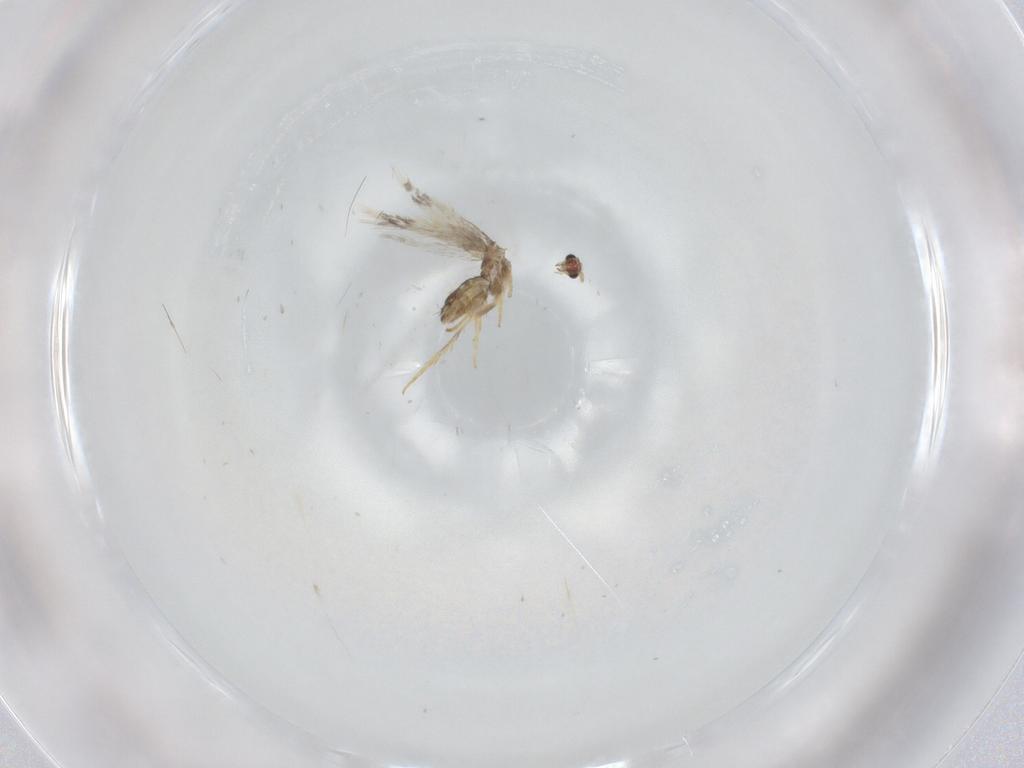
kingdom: Animalia
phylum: Arthropoda
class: Insecta
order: Lepidoptera
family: Nepticulidae
